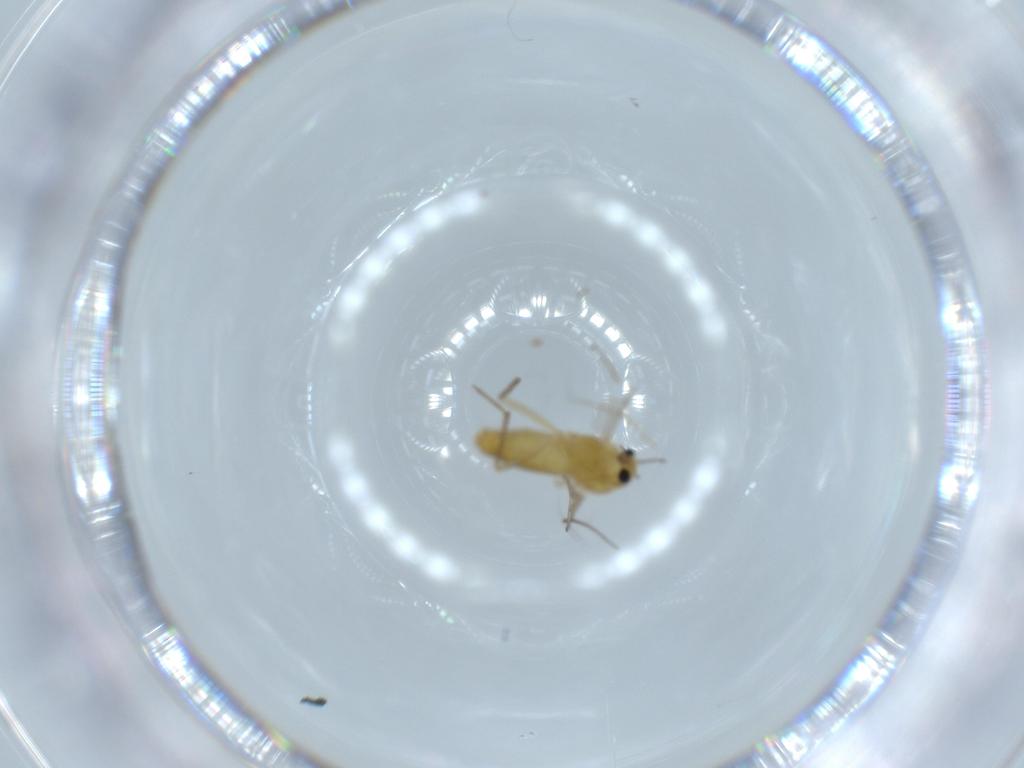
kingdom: Animalia
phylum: Arthropoda
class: Insecta
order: Diptera
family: Chironomidae
